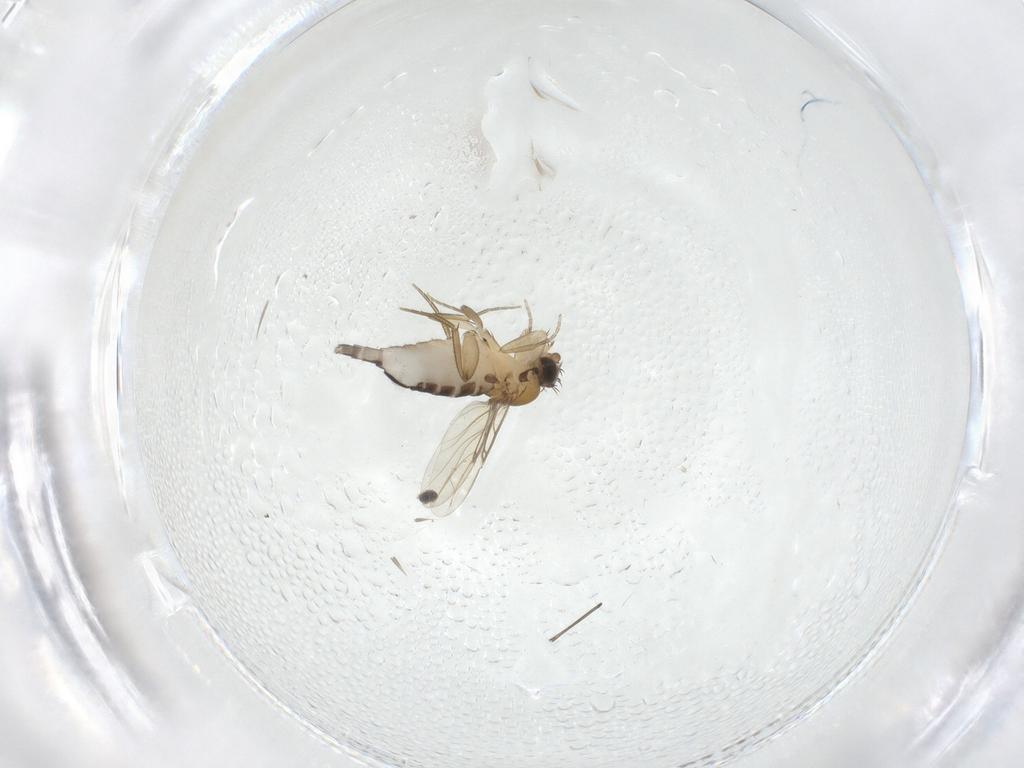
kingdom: Animalia
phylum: Arthropoda
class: Insecta
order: Diptera
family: Phoridae
